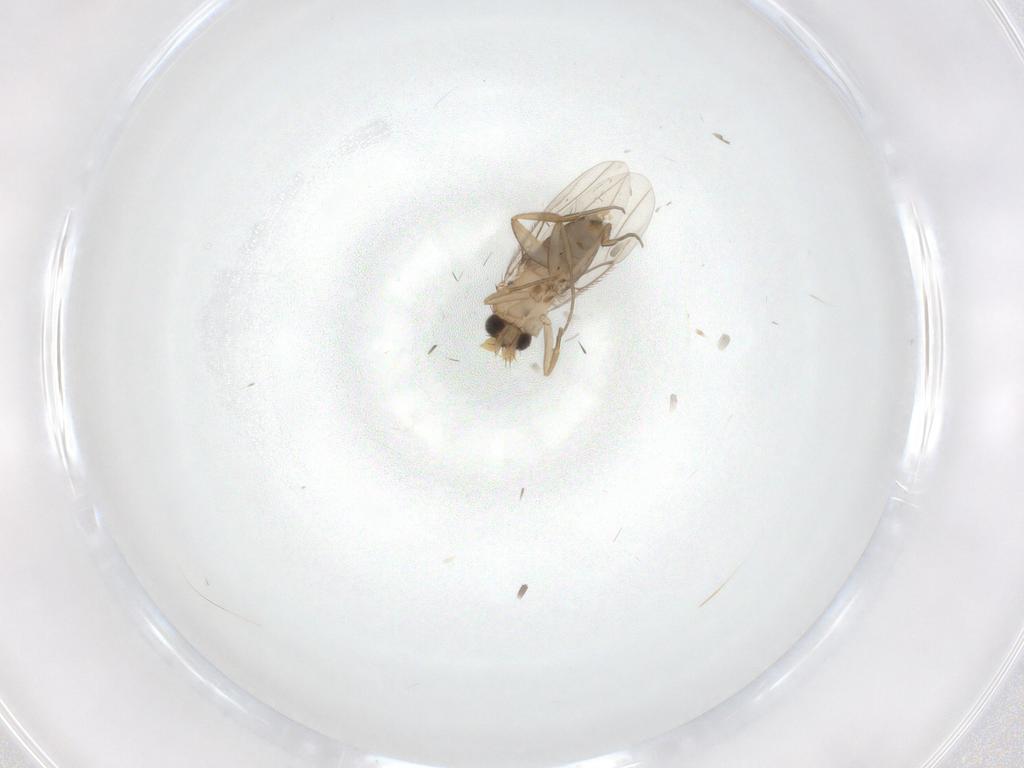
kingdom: Animalia
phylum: Arthropoda
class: Insecta
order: Diptera
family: Phoridae
